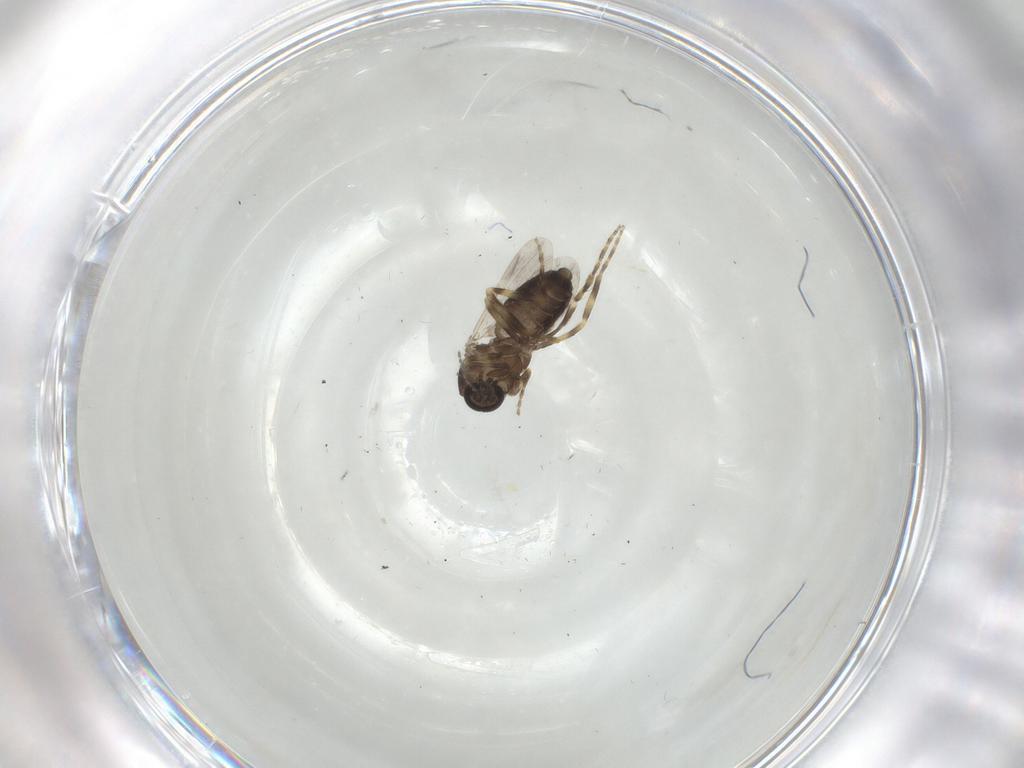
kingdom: Animalia
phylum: Arthropoda
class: Insecta
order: Diptera
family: Ceratopogonidae
